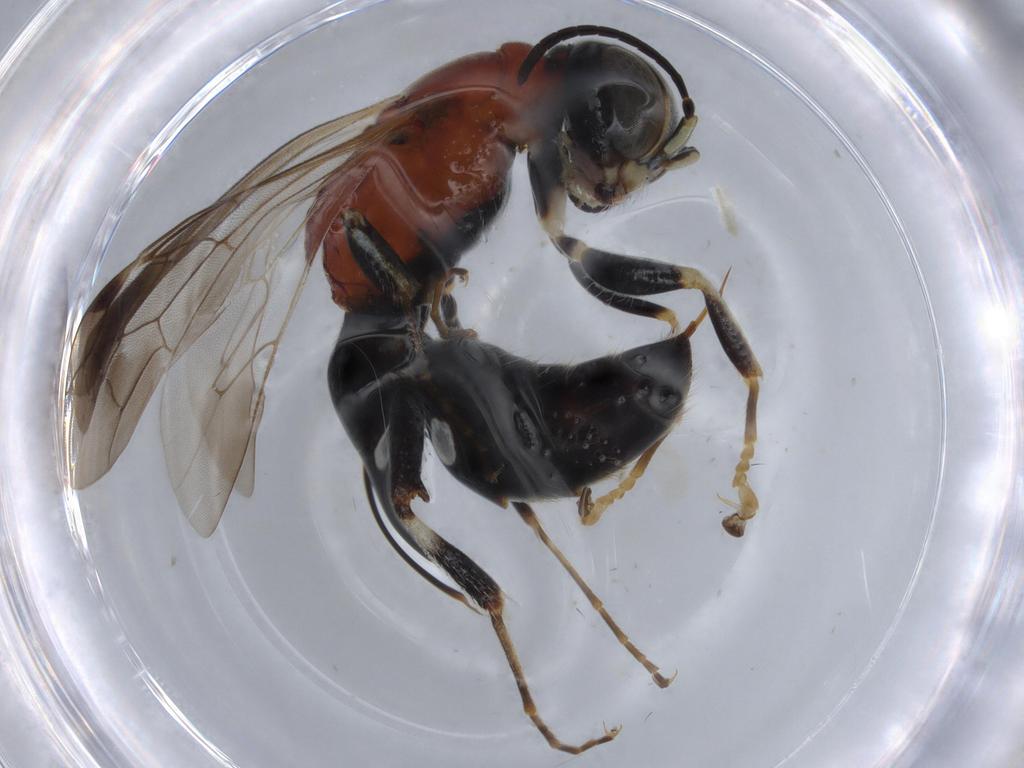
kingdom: Animalia
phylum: Arthropoda
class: Insecta
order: Hymenoptera
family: Bembicidae
